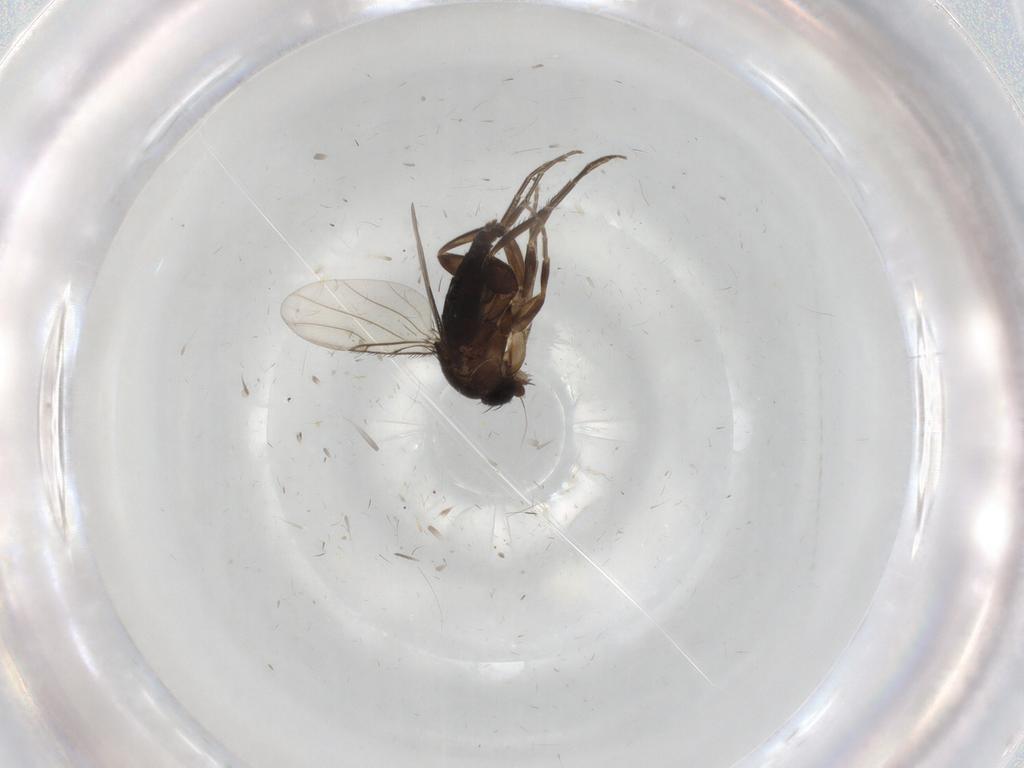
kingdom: Animalia
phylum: Arthropoda
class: Insecta
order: Diptera
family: Phoridae
